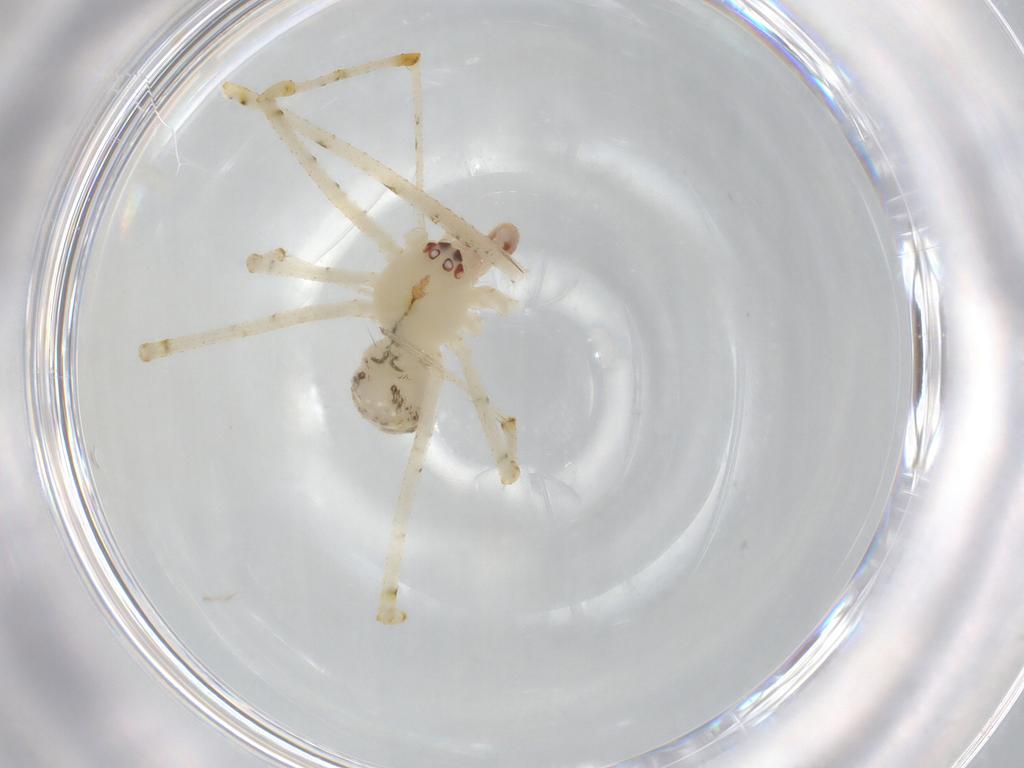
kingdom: Animalia
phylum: Arthropoda
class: Arachnida
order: Araneae
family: Theridiidae
